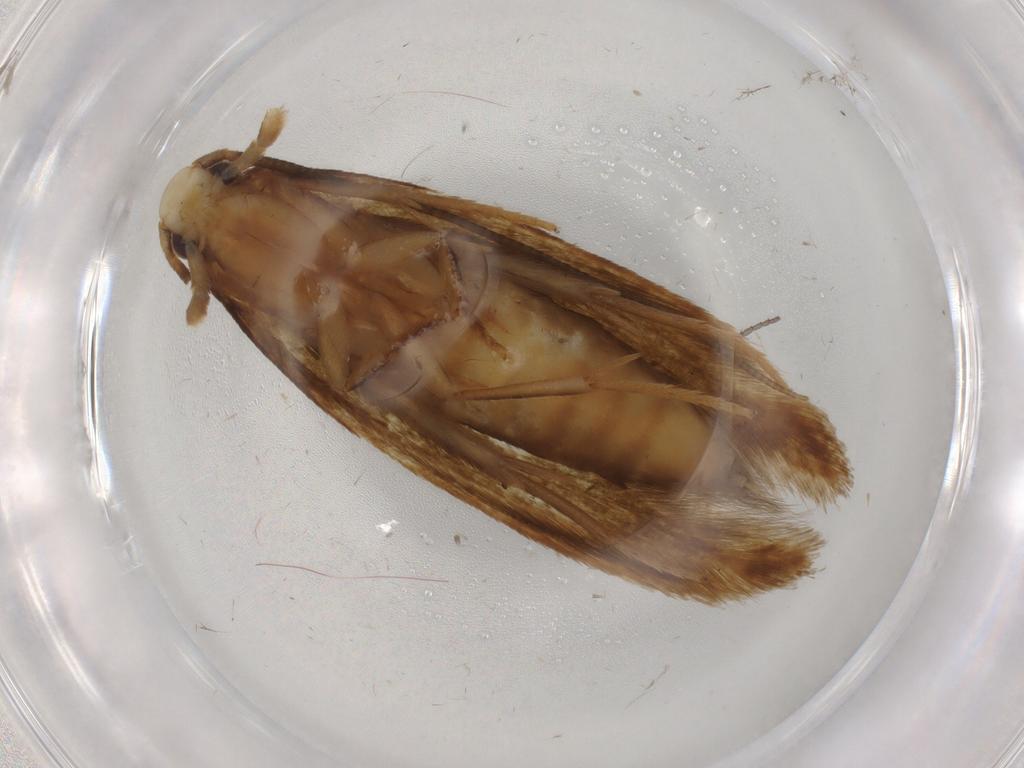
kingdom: Animalia
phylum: Arthropoda
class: Insecta
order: Lepidoptera
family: Tineidae
